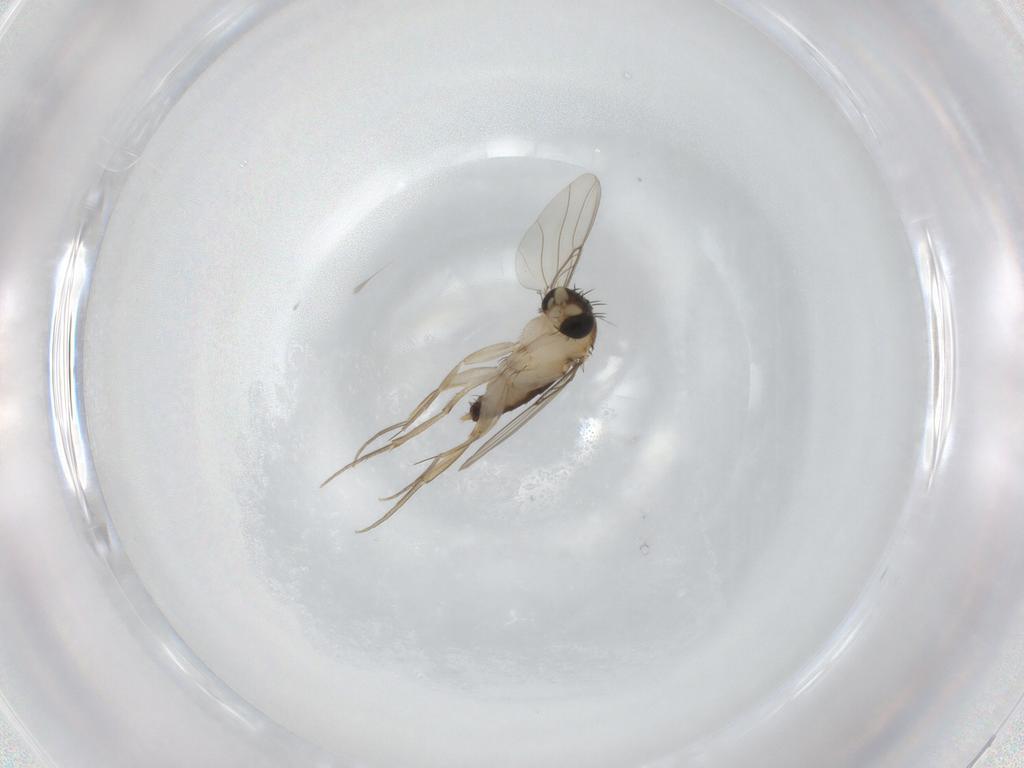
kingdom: Animalia
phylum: Arthropoda
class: Insecta
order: Diptera
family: Phoridae
